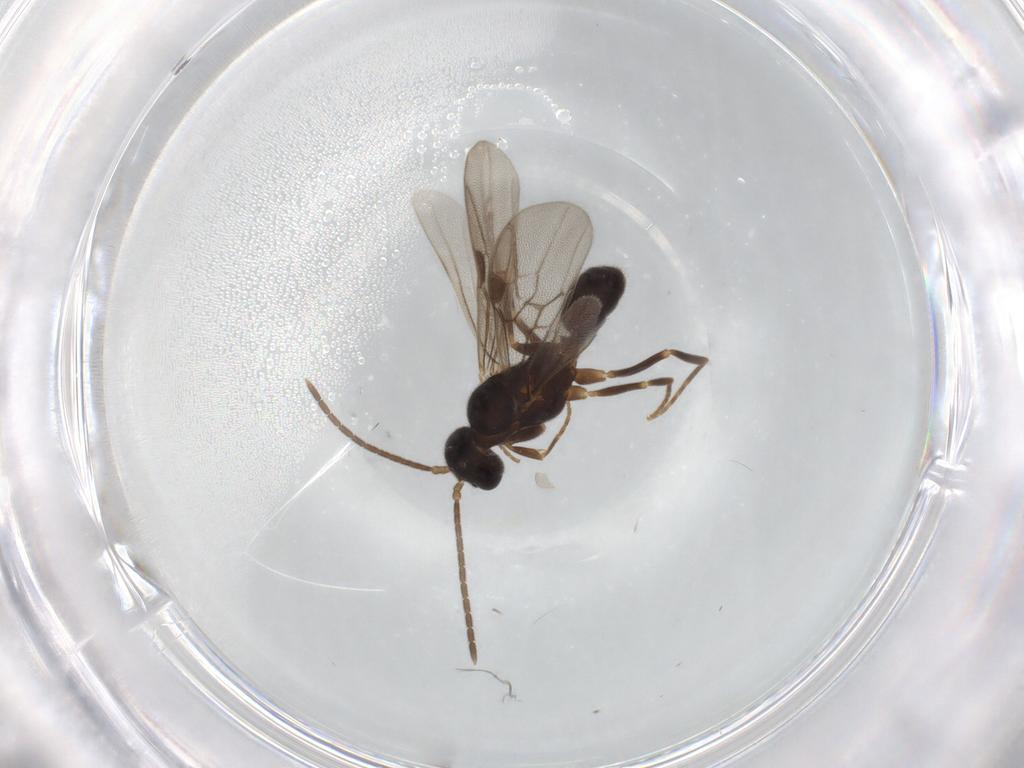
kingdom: Animalia
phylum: Arthropoda
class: Insecta
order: Hymenoptera
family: Formicidae
